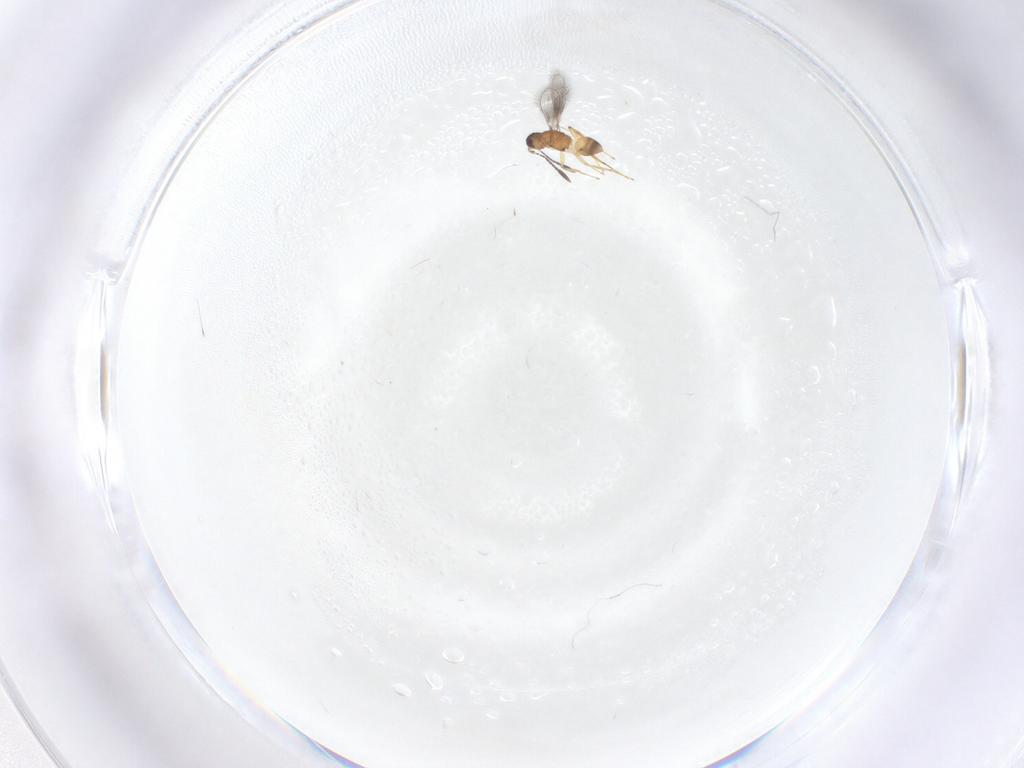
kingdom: Animalia
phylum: Arthropoda
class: Insecta
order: Hymenoptera
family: Mymaridae
